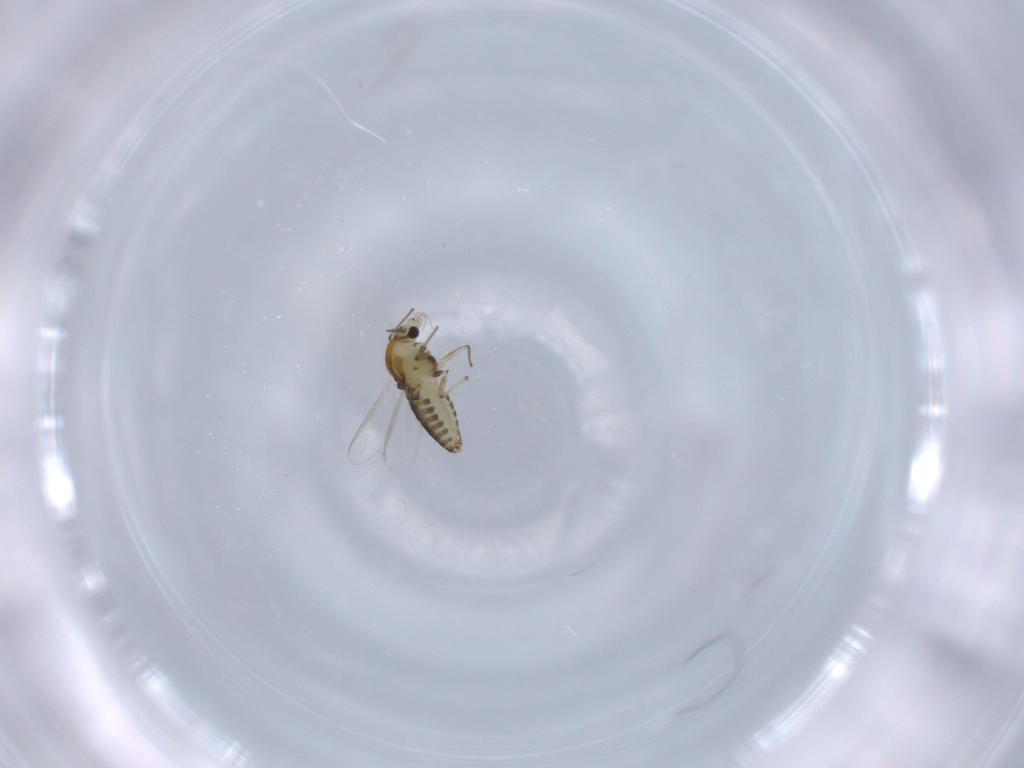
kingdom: Animalia
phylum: Arthropoda
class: Insecta
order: Diptera
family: Chironomidae
